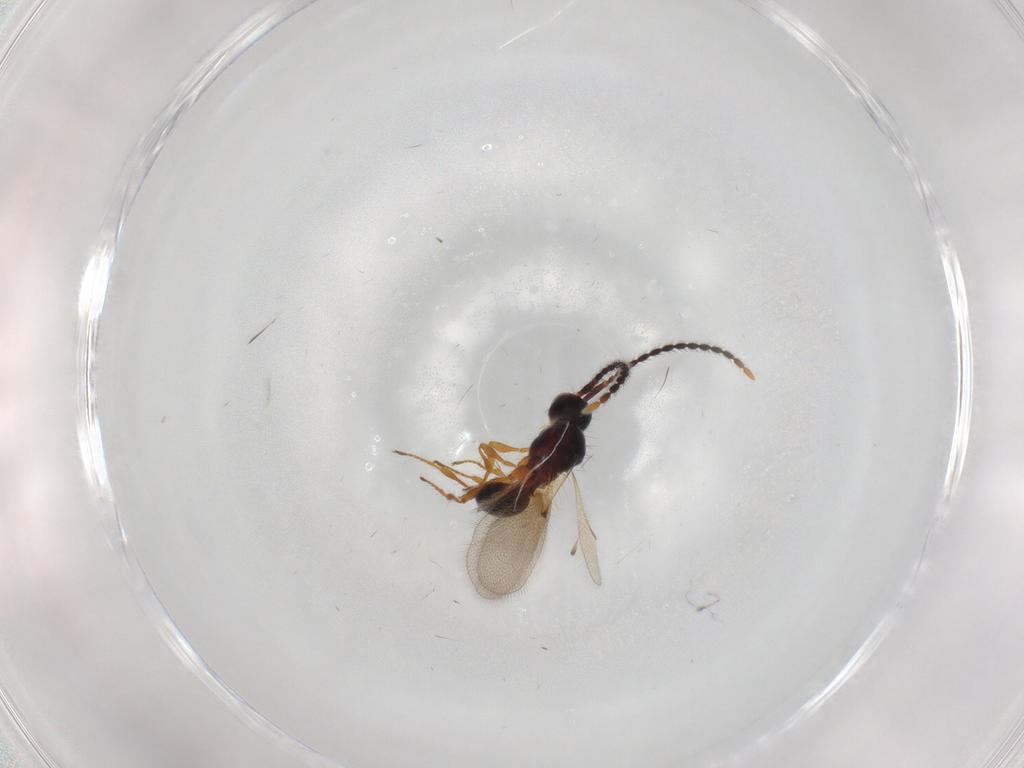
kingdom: Animalia
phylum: Arthropoda
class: Insecta
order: Hymenoptera
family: Diapriidae
